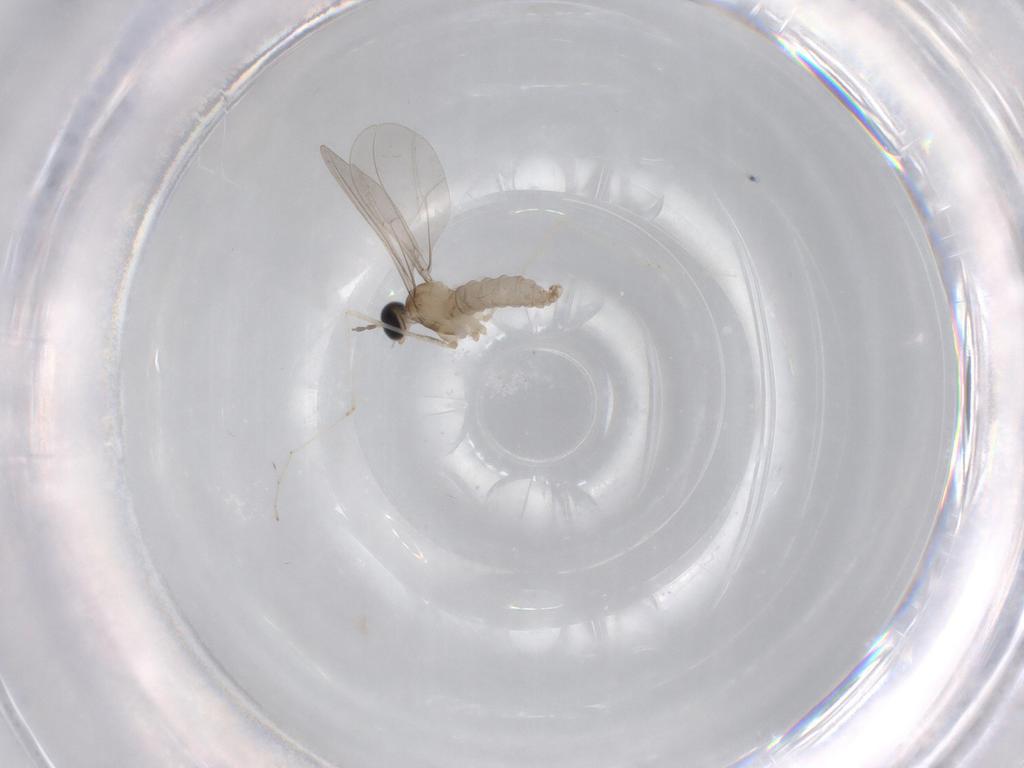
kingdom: Animalia
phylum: Arthropoda
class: Insecta
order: Diptera
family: Cecidomyiidae
